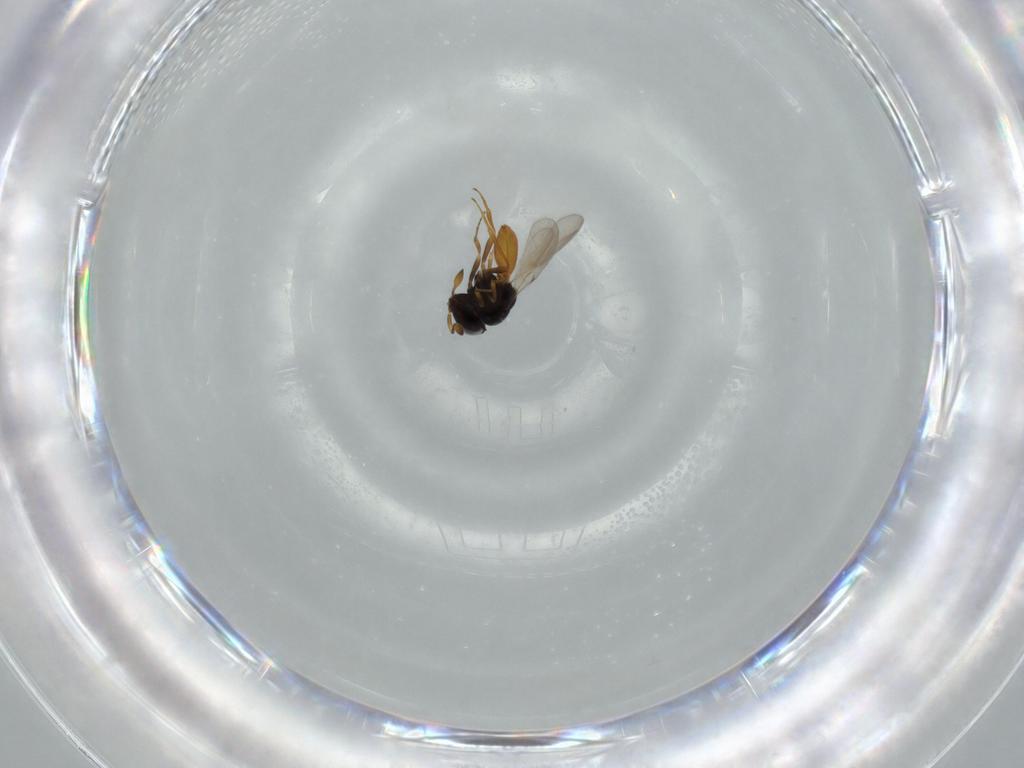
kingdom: Animalia
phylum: Arthropoda
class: Insecta
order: Hymenoptera
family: Scelionidae
